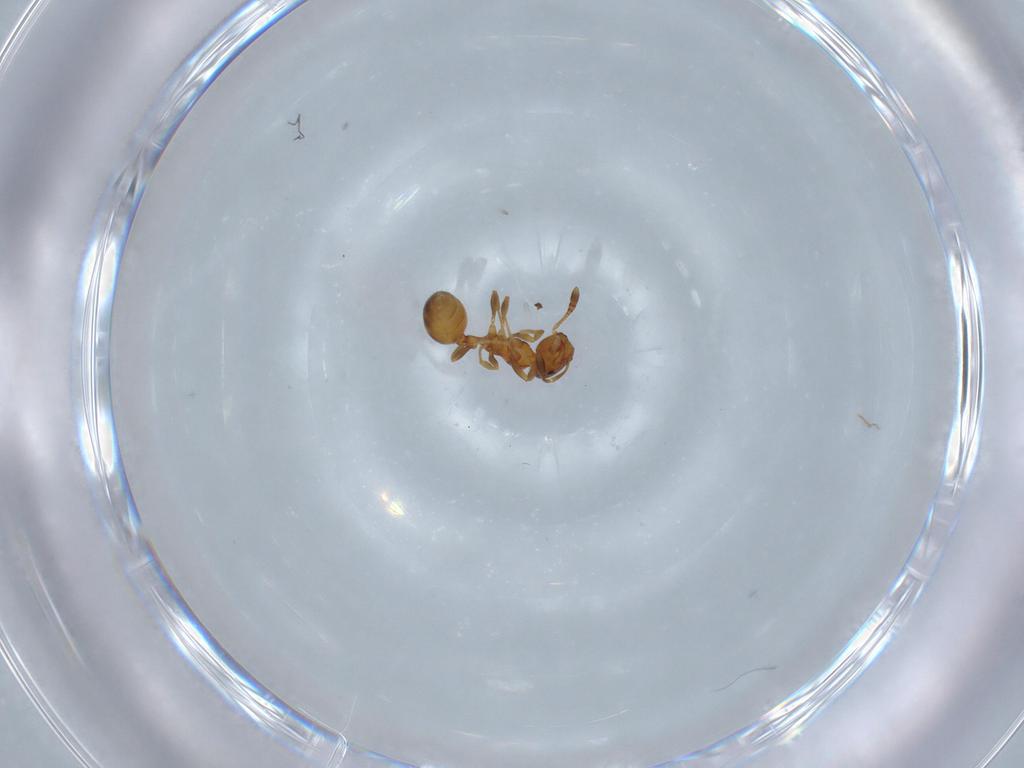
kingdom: Animalia
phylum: Arthropoda
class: Insecta
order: Hymenoptera
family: Formicidae
